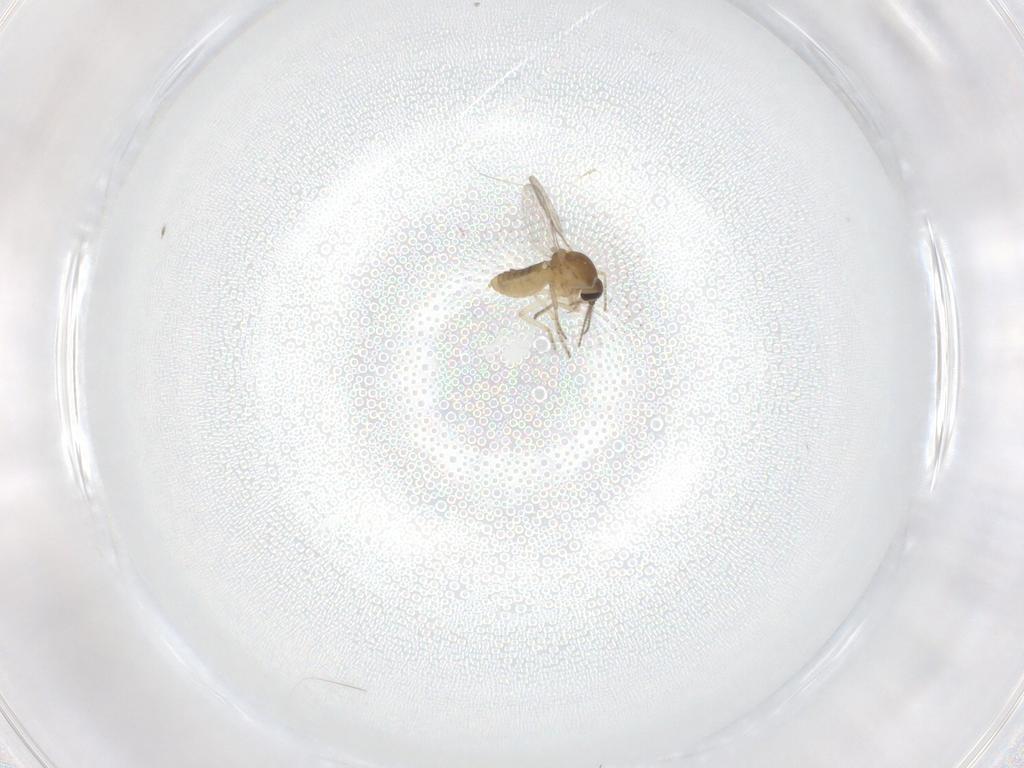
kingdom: Animalia
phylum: Arthropoda
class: Insecta
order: Diptera
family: Ceratopogonidae
